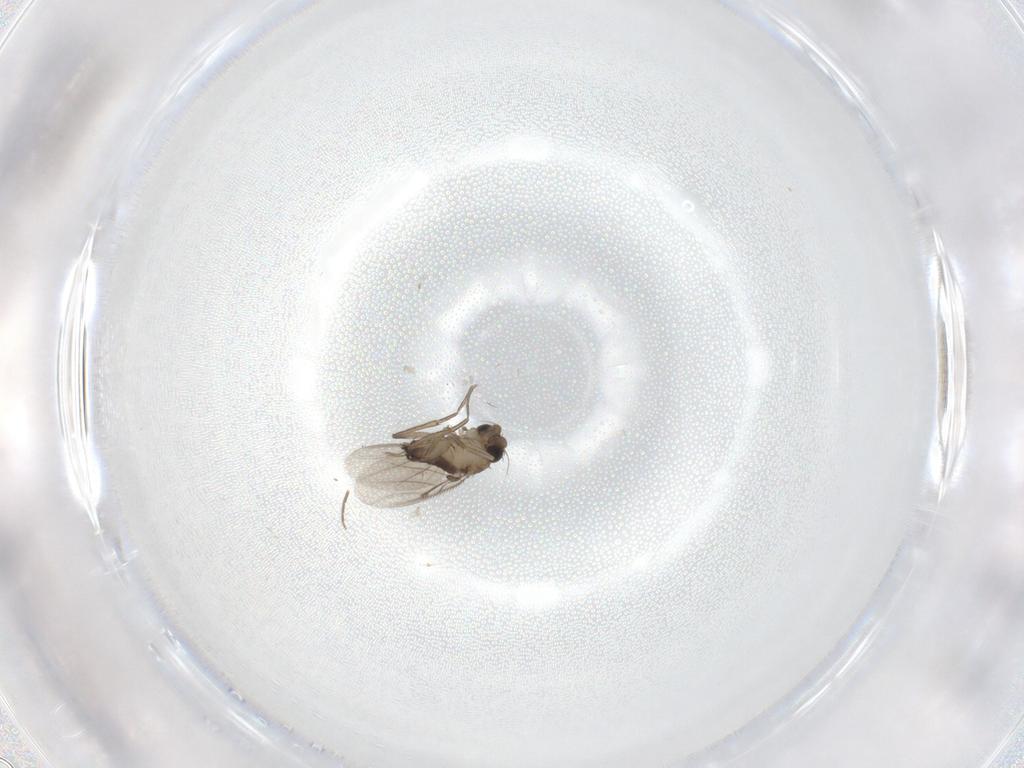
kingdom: Animalia
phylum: Arthropoda
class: Insecta
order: Diptera
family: Phoridae
